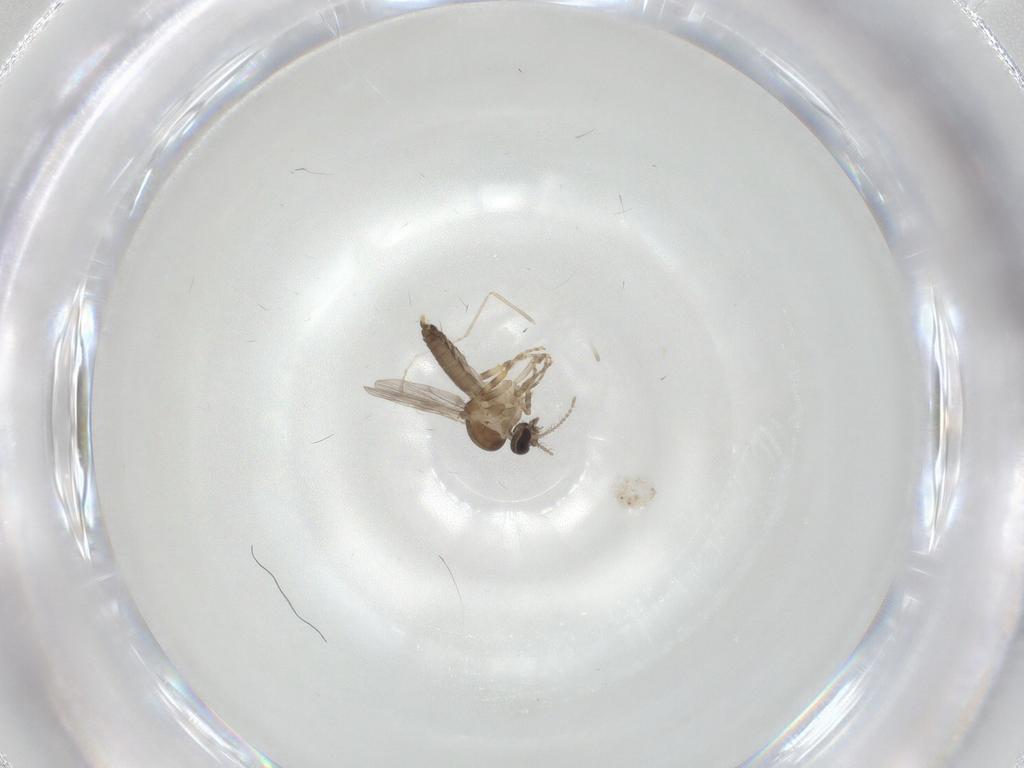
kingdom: Animalia
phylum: Arthropoda
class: Insecta
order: Diptera
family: Ceratopogonidae
